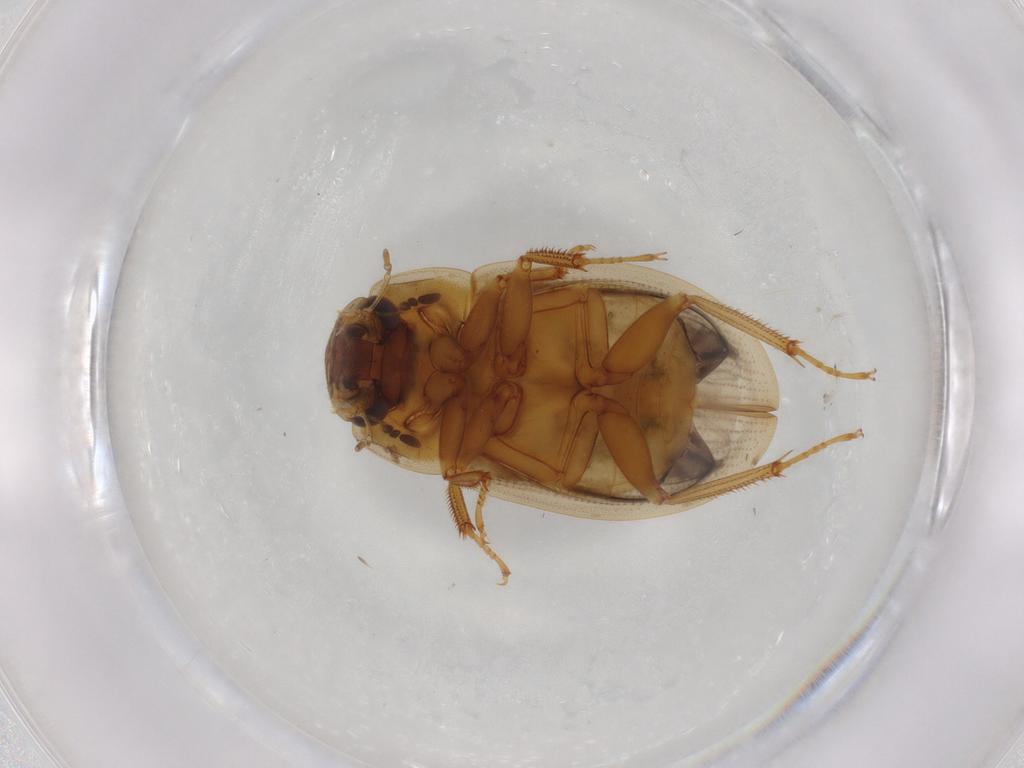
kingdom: Animalia
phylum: Arthropoda
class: Insecta
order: Coleoptera
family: Hydrophilidae
